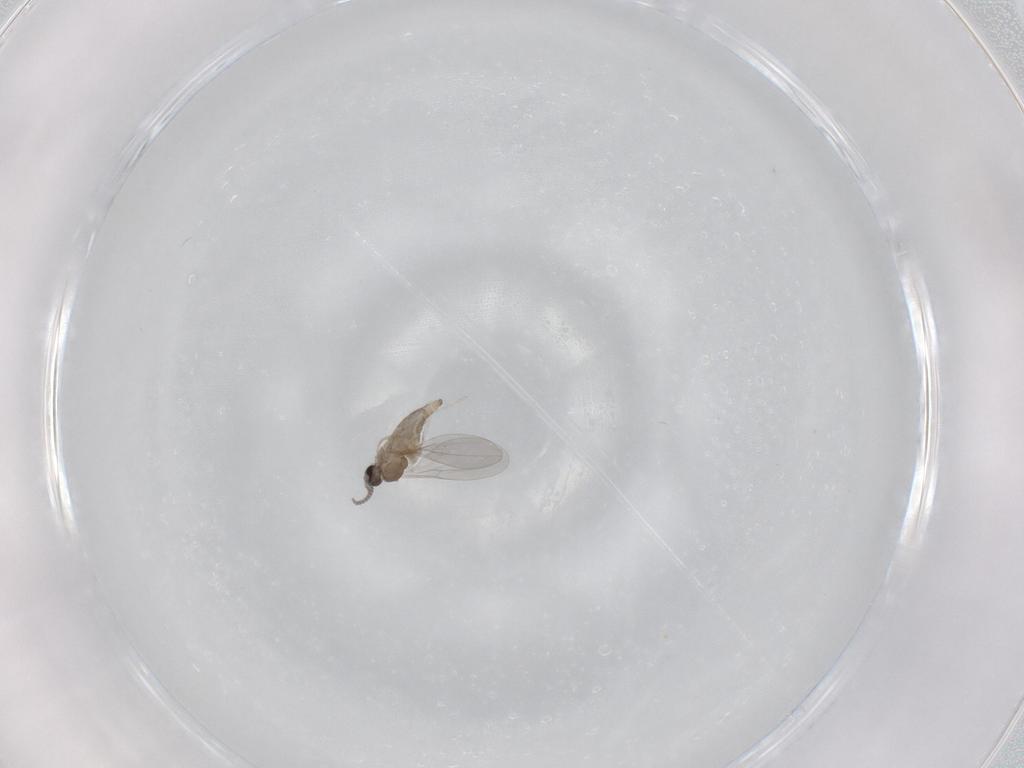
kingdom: Animalia
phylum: Arthropoda
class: Insecta
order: Diptera
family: Cecidomyiidae
